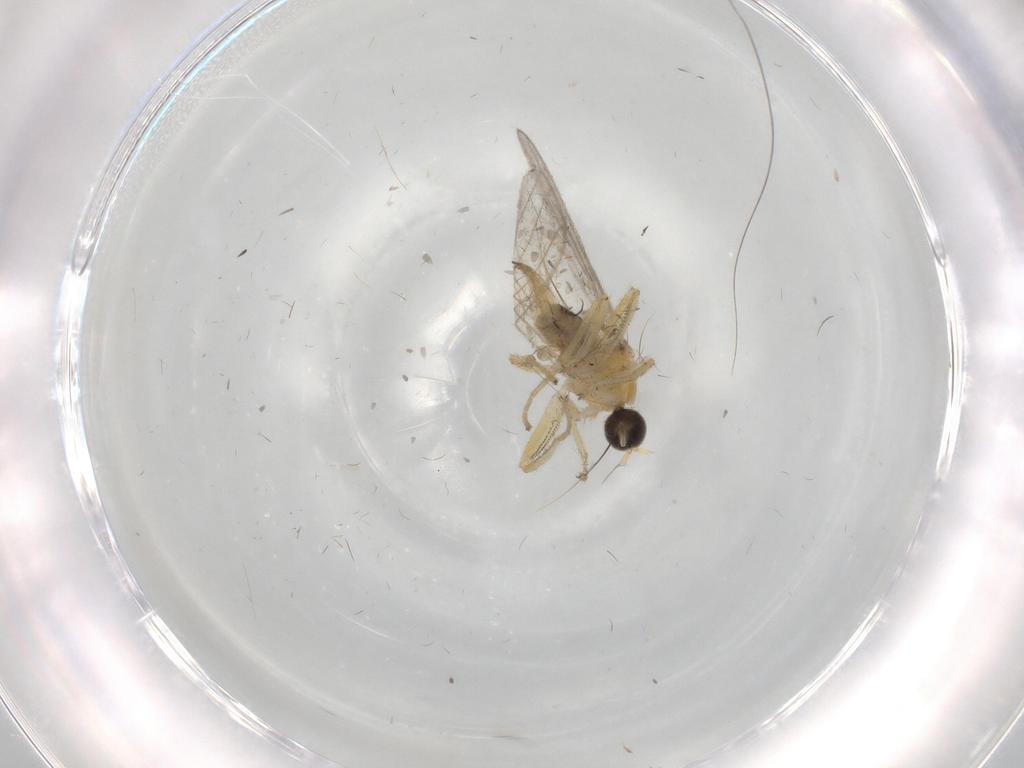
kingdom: Animalia
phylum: Arthropoda
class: Insecta
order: Diptera
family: Hybotidae
